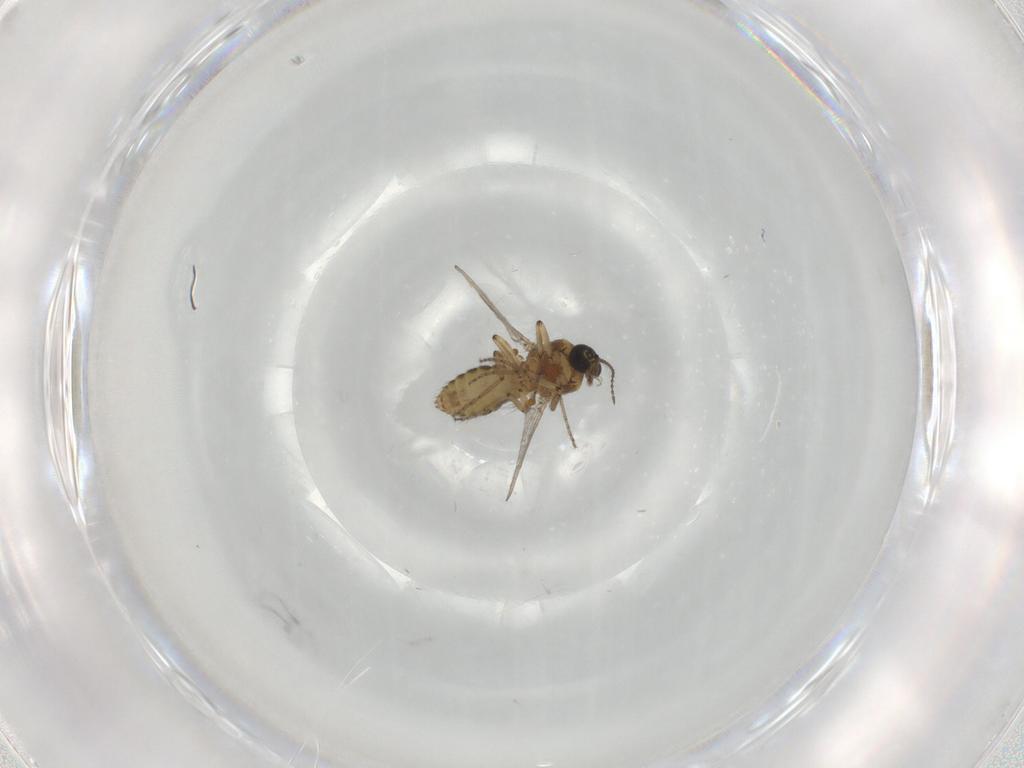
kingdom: Animalia
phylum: Arthropoda
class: Insecta
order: Diptera
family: Ceratopogonidae
